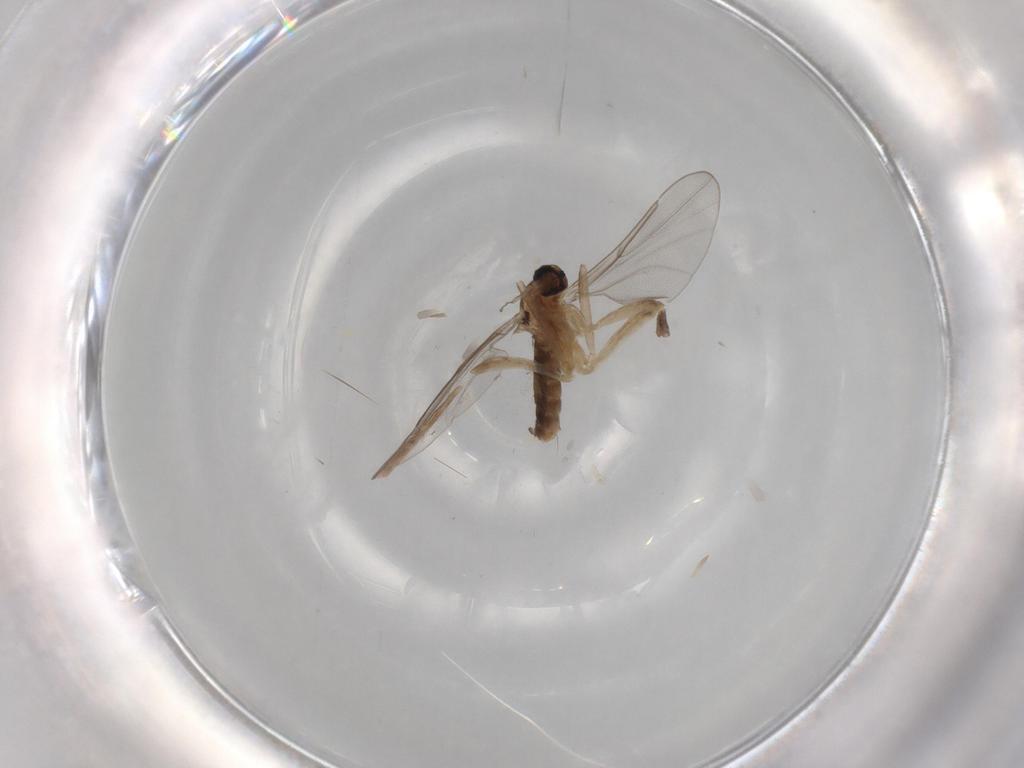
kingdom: Animalia
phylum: Arthropoda
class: Insecta
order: Diptera
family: Cecidomyiidae
